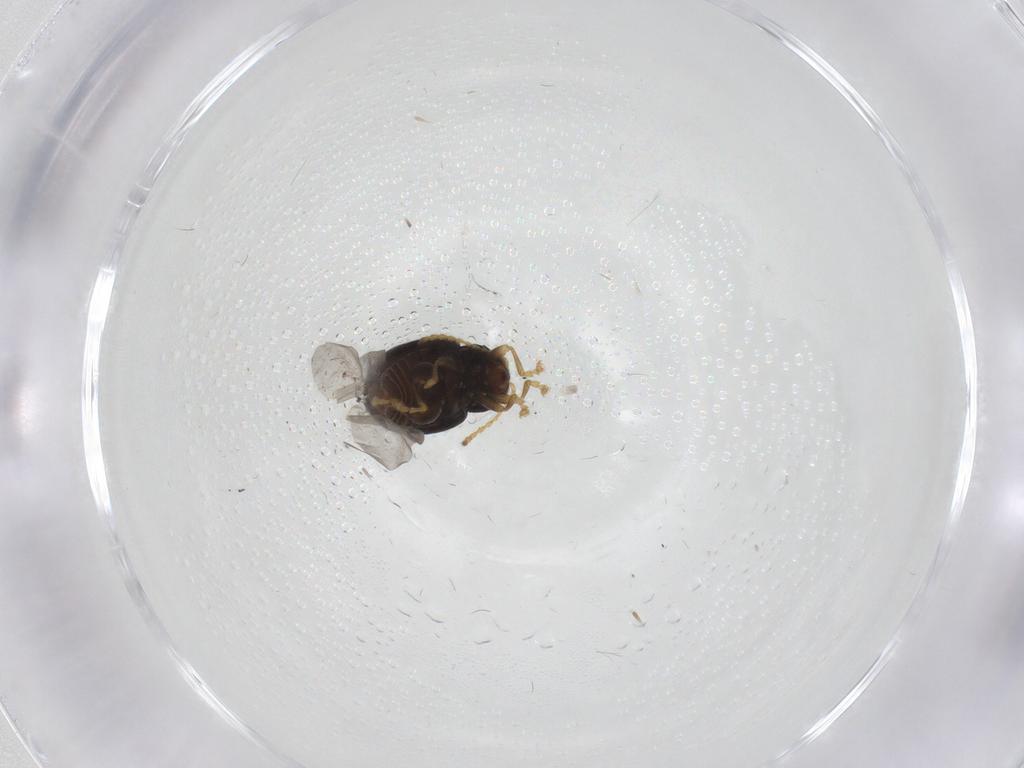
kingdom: Animalia
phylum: Arthropoda
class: Insecta
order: Coleoptera
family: Chrysomelidae
